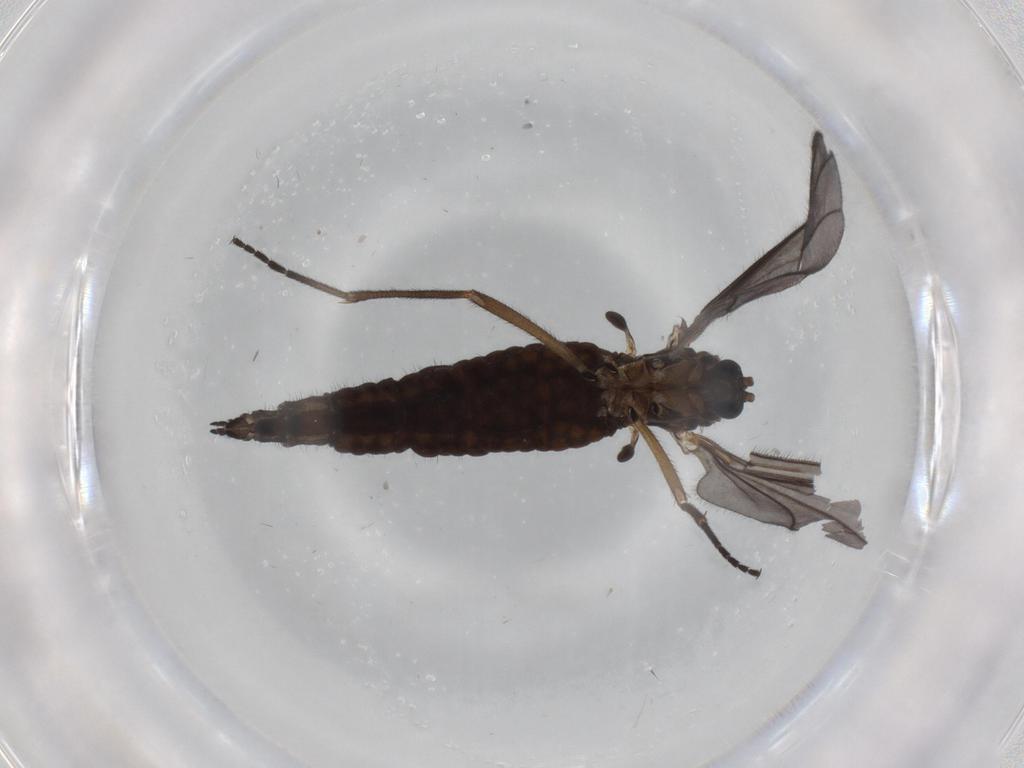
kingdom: Animalia
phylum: Arthropoda
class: Insecta
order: Diptera
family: Sciaridae
